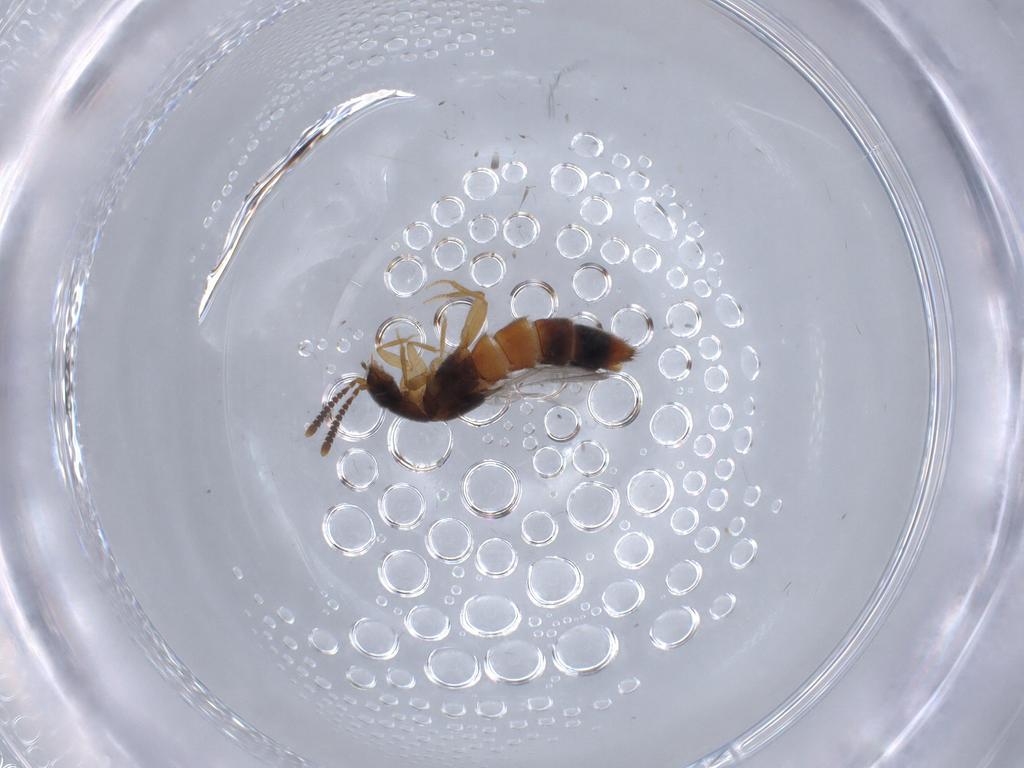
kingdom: Animalia
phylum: Arthropoda
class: Insecta
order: Coleoptera
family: Staphylinidae
